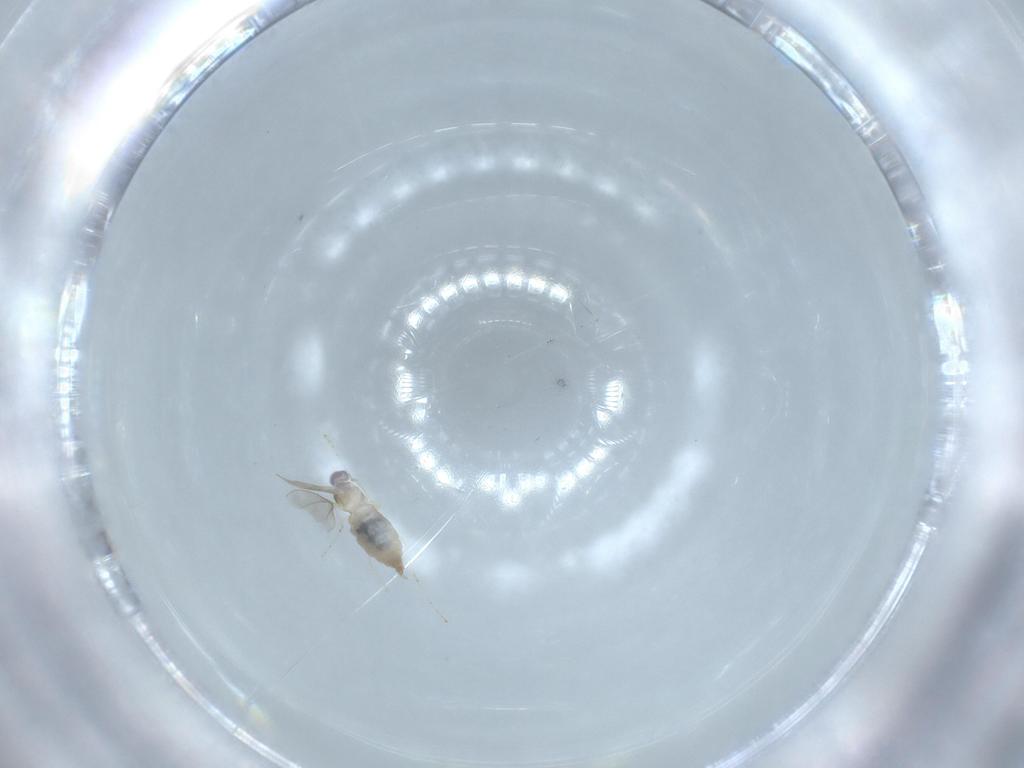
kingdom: Animalia
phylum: Arthropoda
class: Insecta
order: Diptera
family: Cecidomyiidae
